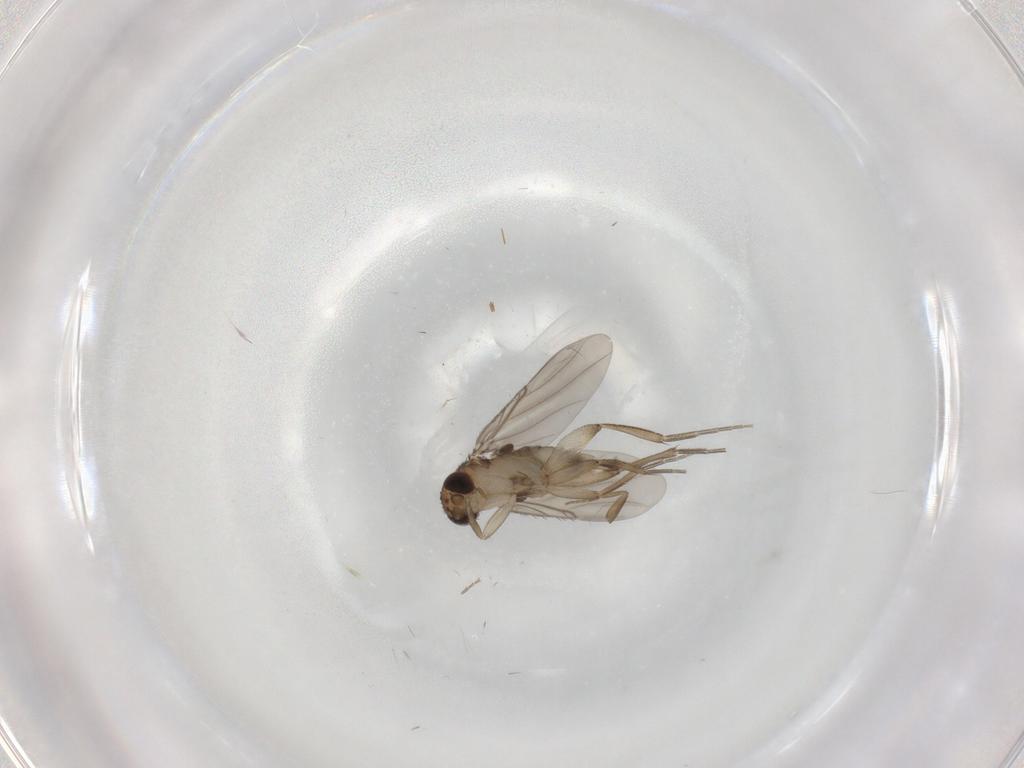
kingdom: Animalia
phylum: Arthropoda
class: Insecta
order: Diptera
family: Phoridae
